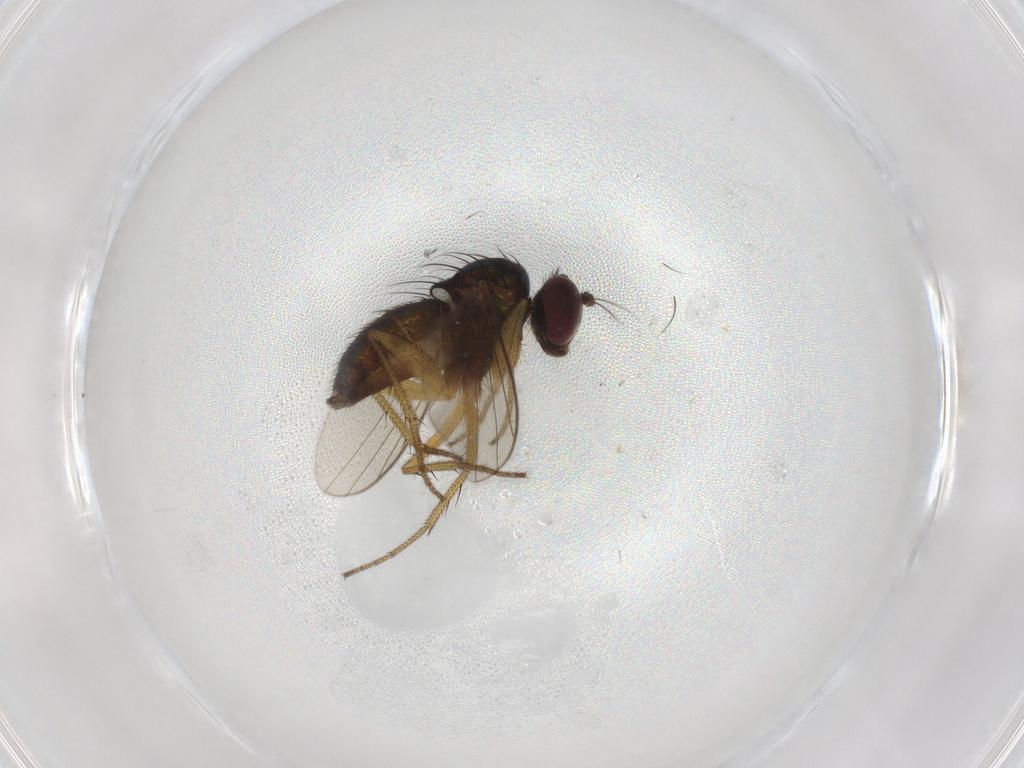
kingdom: Animalia
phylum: Arthropoda
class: Insecta
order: Diptera
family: Dolichopodidae
